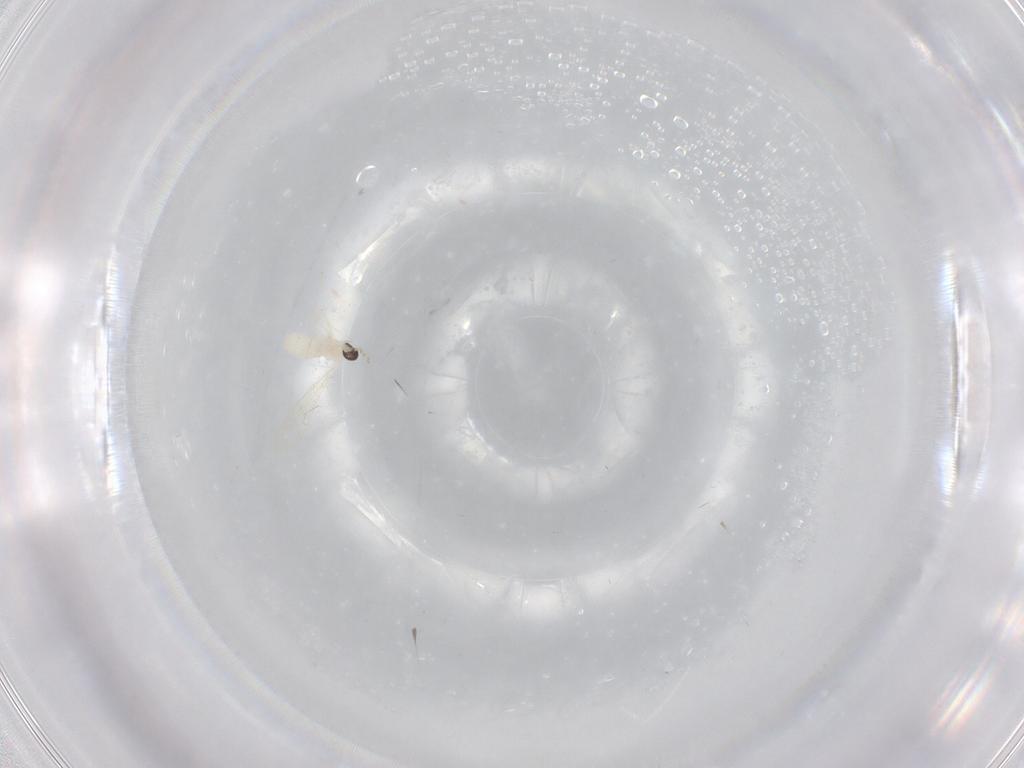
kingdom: Animalia
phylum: Arthropoda
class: Insecta
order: Diptera
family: Cecidomyiidae
